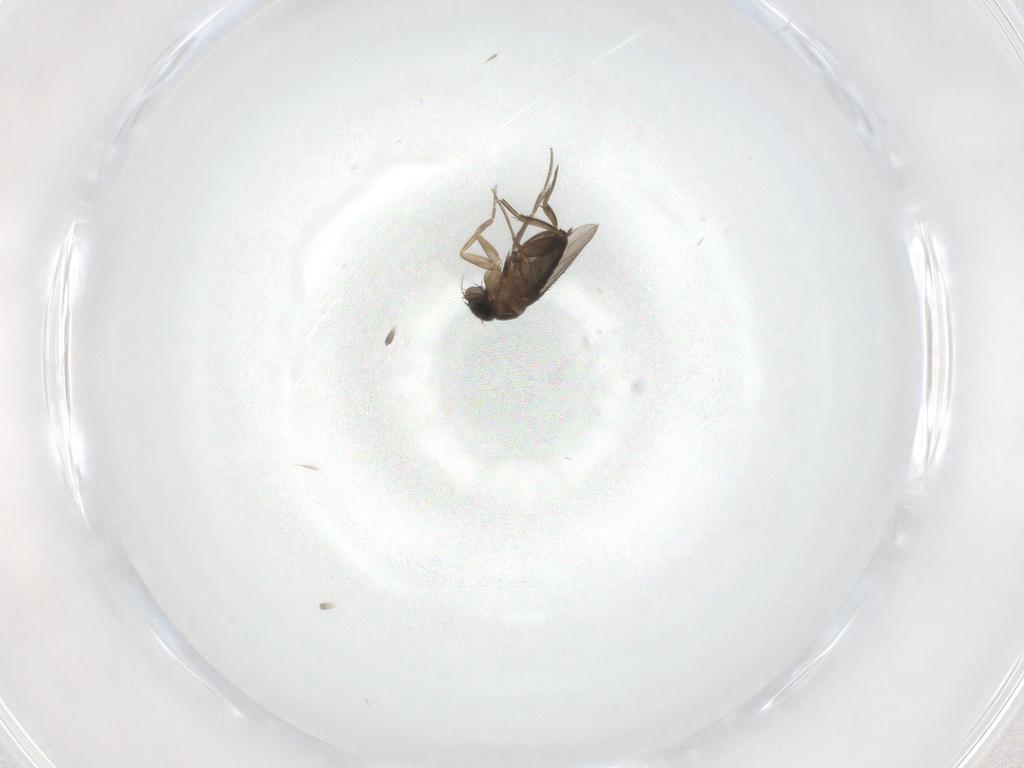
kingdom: Animalia
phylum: Arthropoda
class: Insecta
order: Diptera
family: Phoridae
